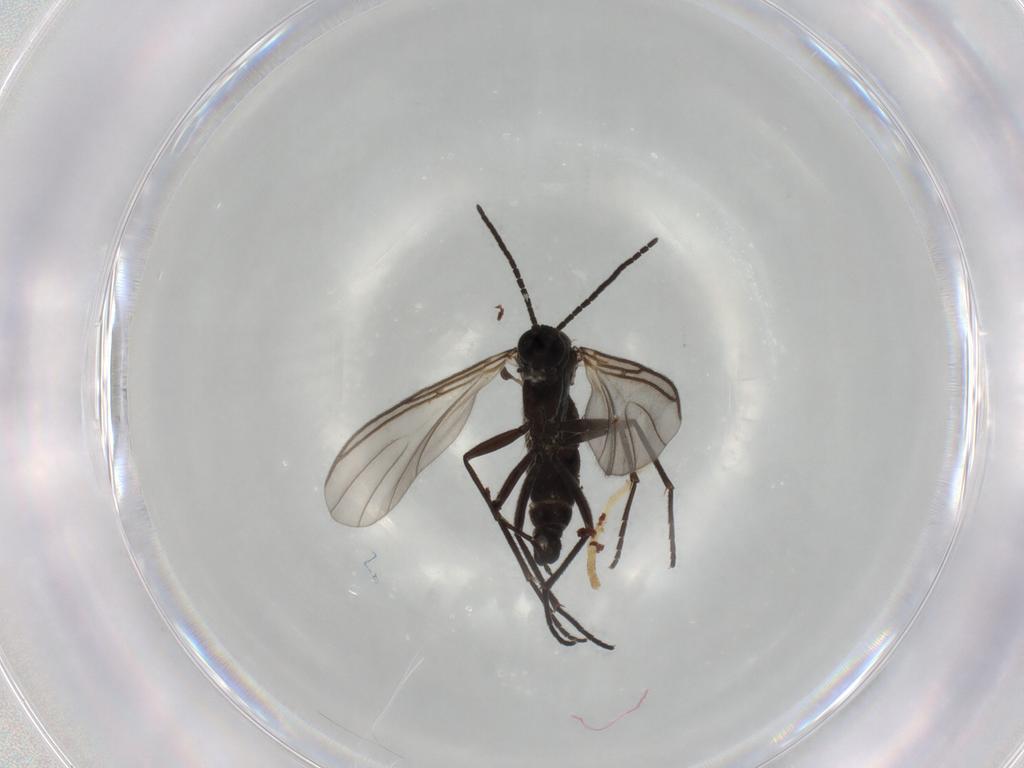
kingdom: Animalia
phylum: Arthropoda
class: Insecta
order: Diptera
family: Sciaridae
